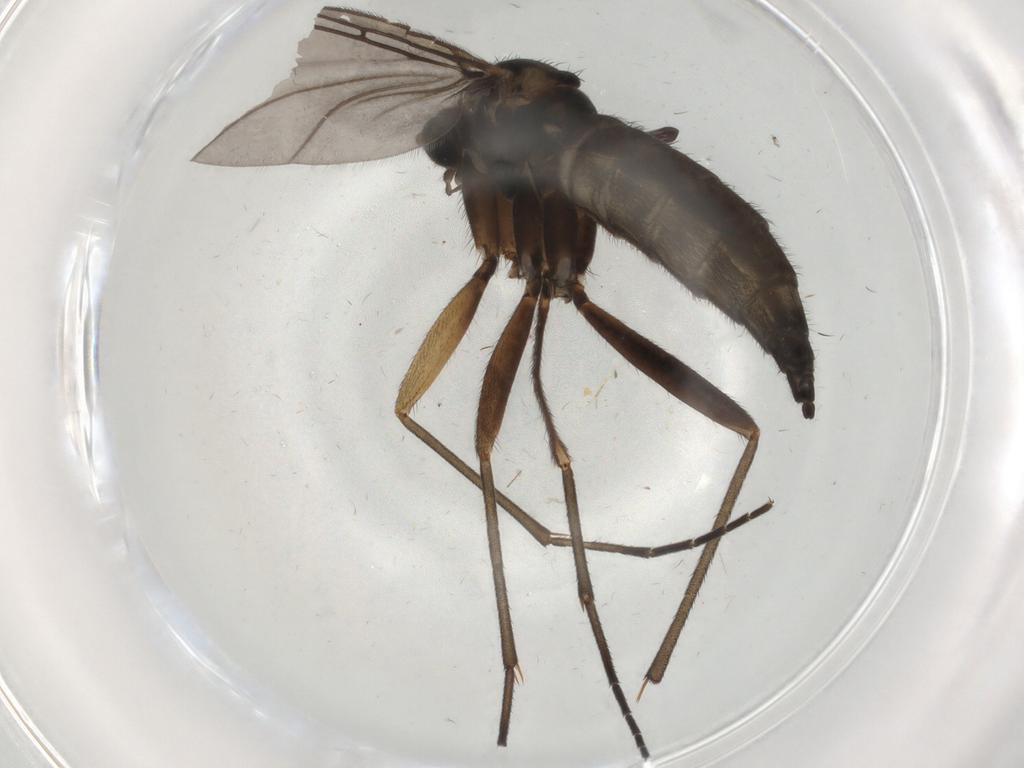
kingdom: Animalia
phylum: Arthropoda
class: Insecta
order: Diptera
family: Sciaridae
